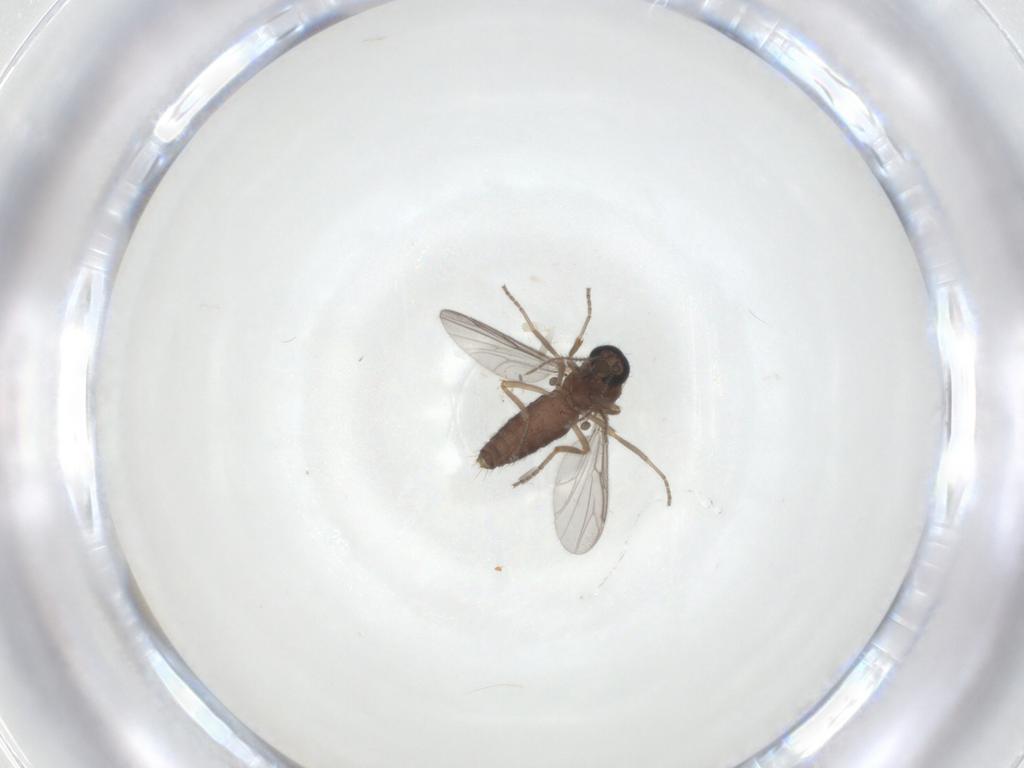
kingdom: Animalia
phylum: Arthropoda
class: Insecta
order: Diptera
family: Ceratopogonidae
